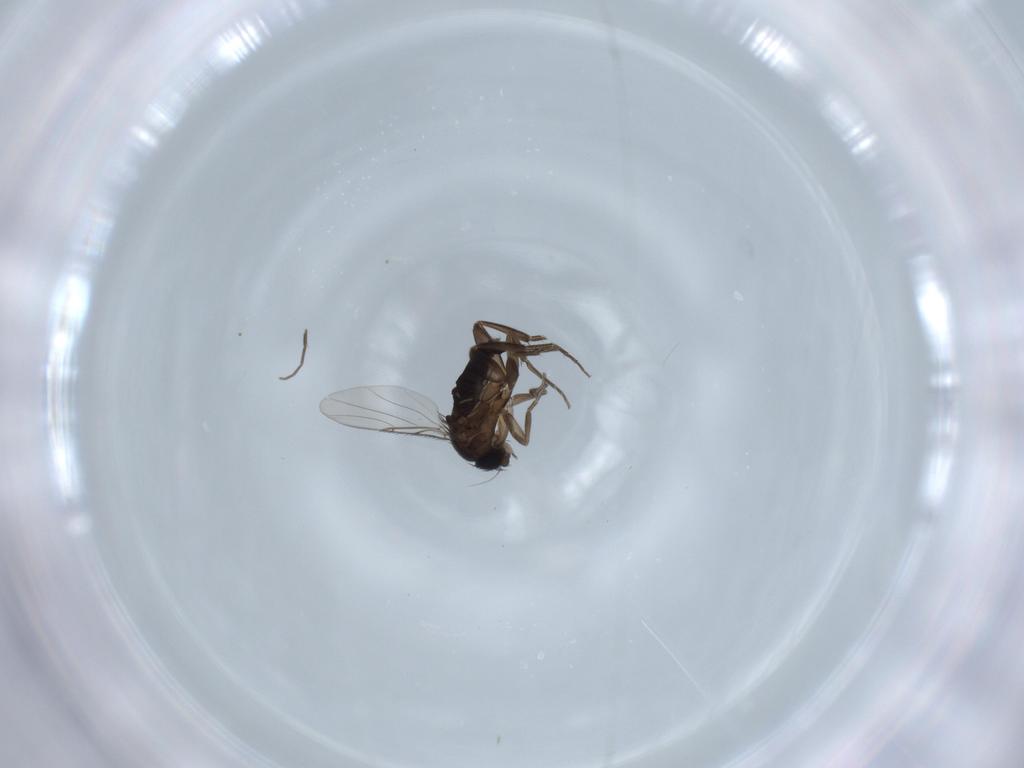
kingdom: Animalia
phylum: Arthropoda
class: Insecta
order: Diptera
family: Phoridae
